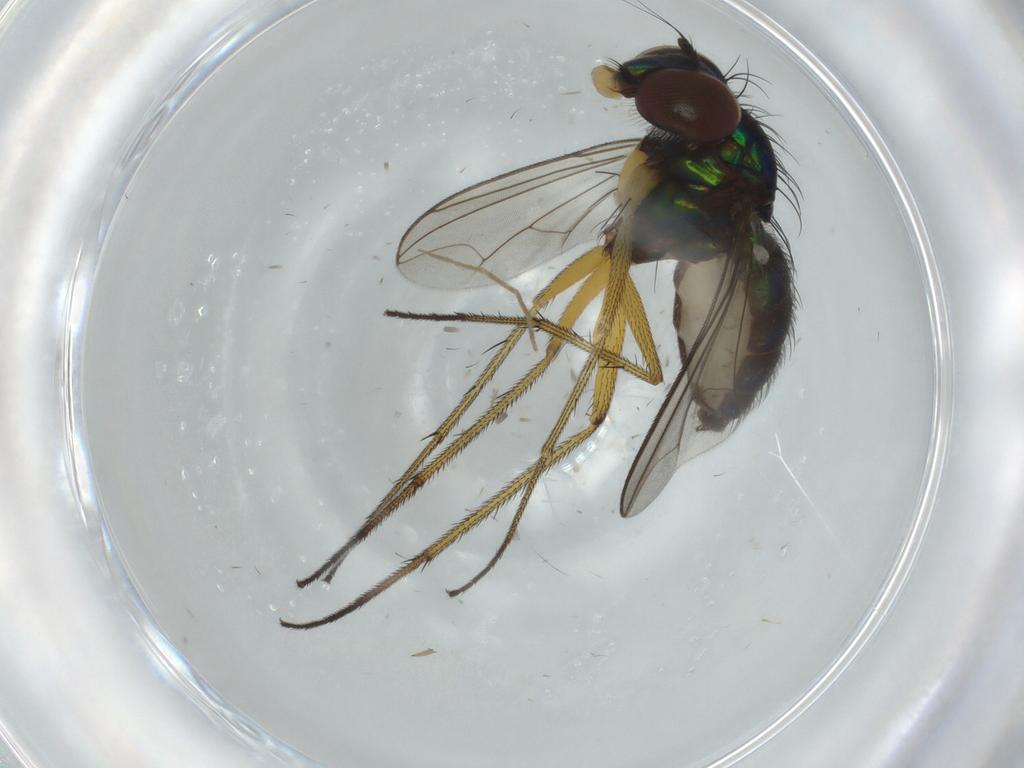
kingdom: Animalia
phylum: Arthropoda
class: Insecta
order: Diptera
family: Dolichopodidae
